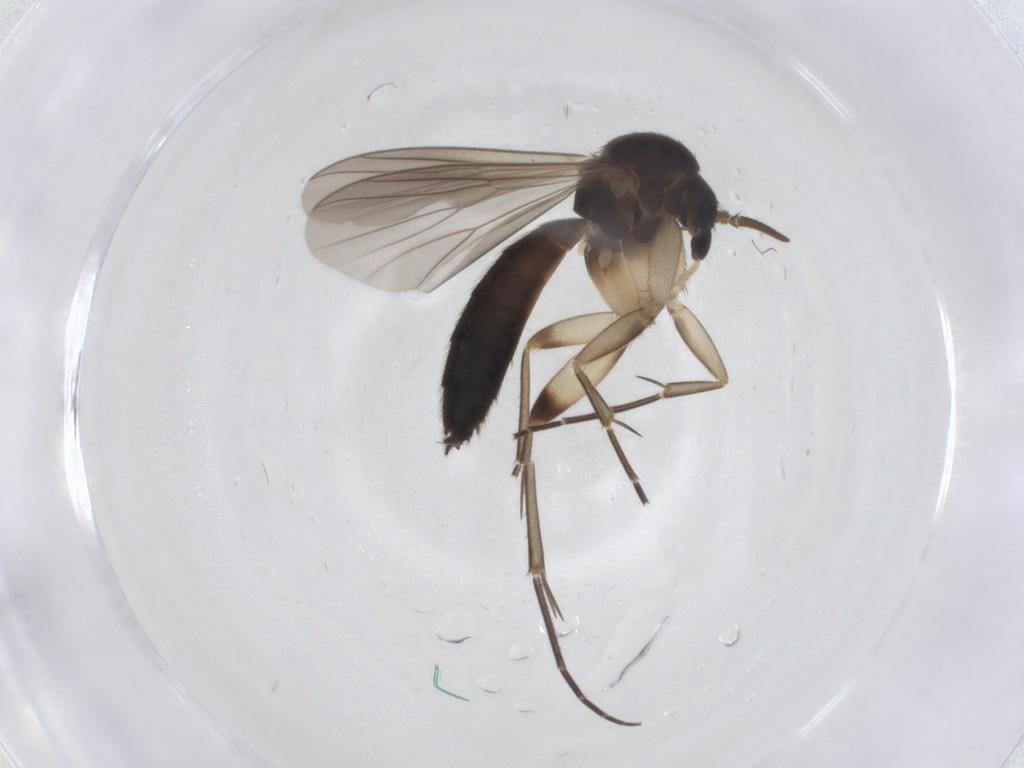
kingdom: Animalia
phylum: Arthropoda
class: Insecta
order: Diptera
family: Mycetophilidae
